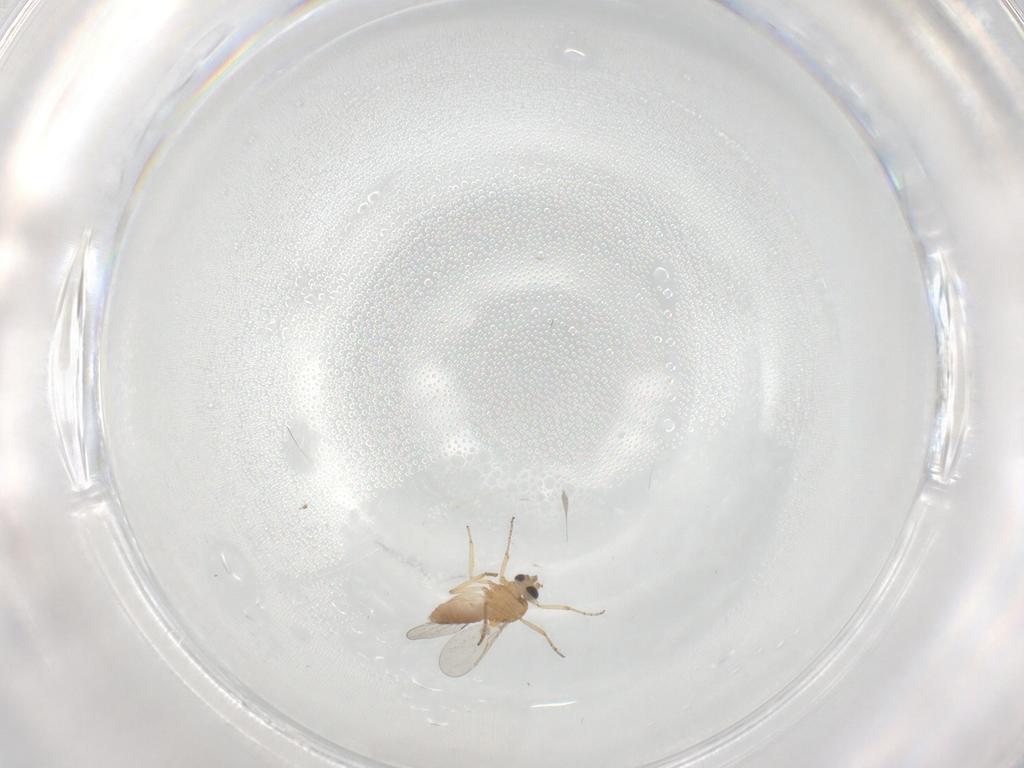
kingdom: Animalia
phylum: Arthropoda
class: Insecta
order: Diptera
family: Ceratopogonidae
